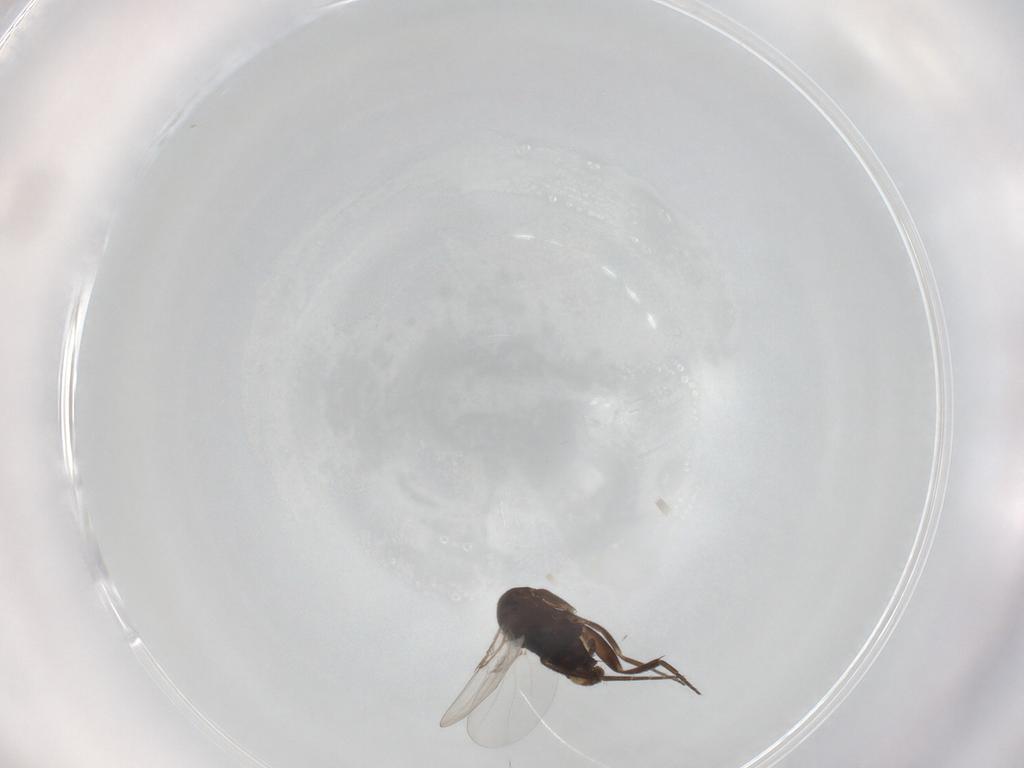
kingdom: Animalia
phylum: Arthropoda
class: Insecta
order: Diptera
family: Phoridae
